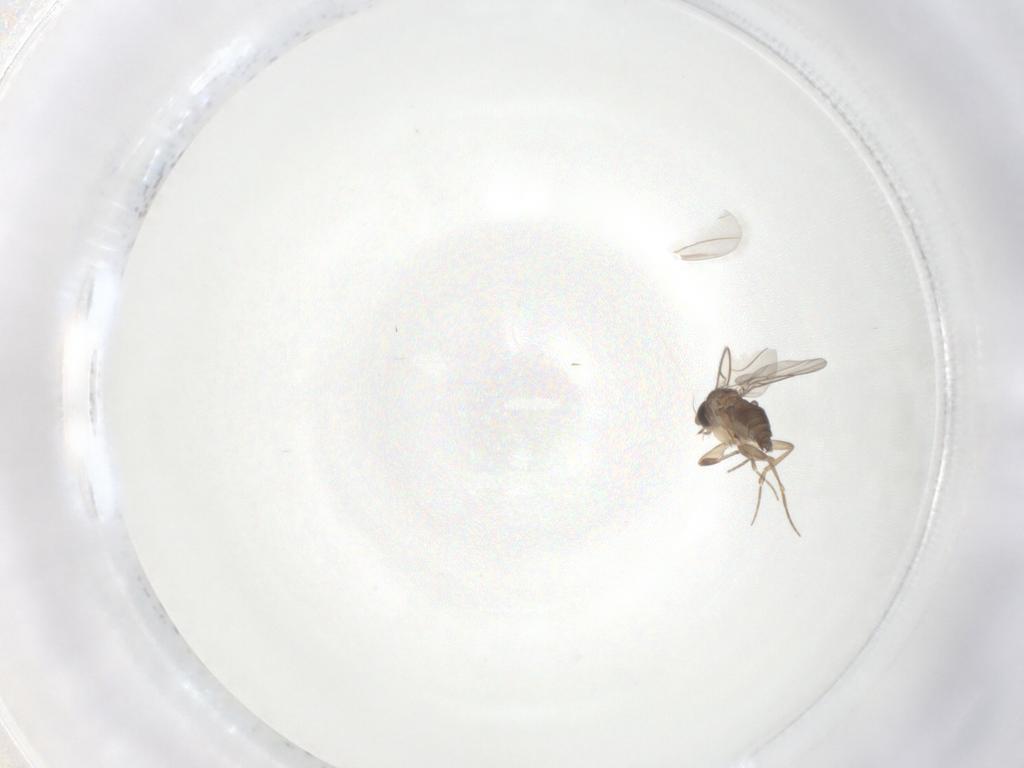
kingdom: Animalia
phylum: Arthropoda
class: Insecta
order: Diptera
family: Phoridae
